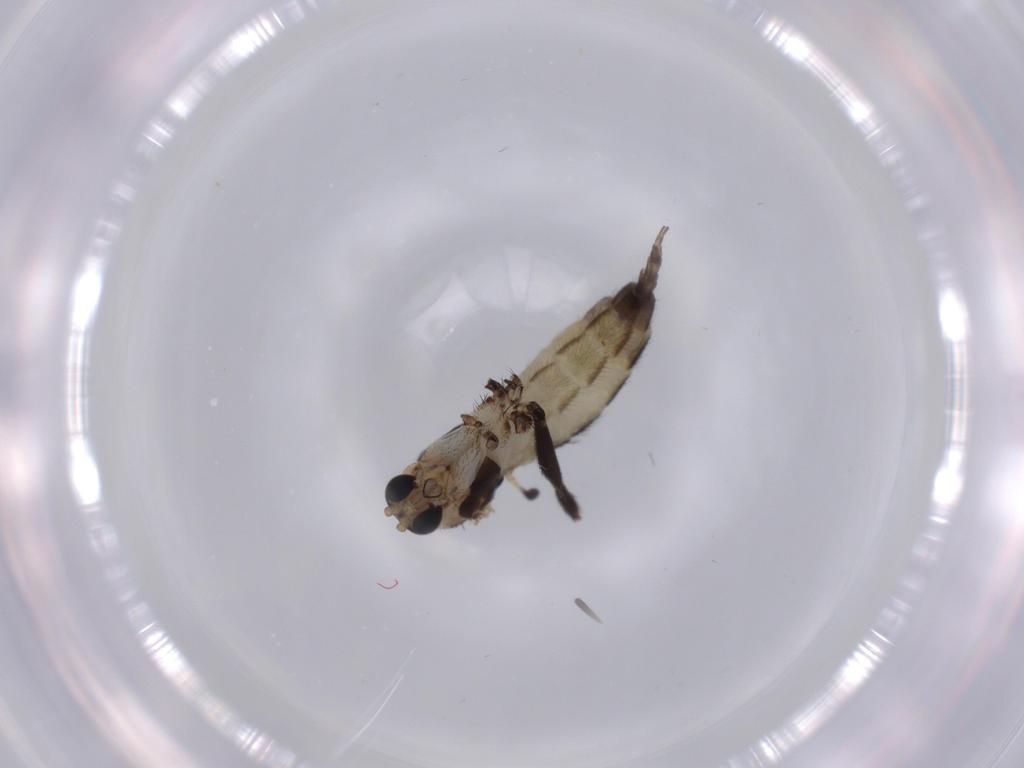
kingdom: Animalia
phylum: Arthropoda
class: Insecta
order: Diptera
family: Sciaridae
